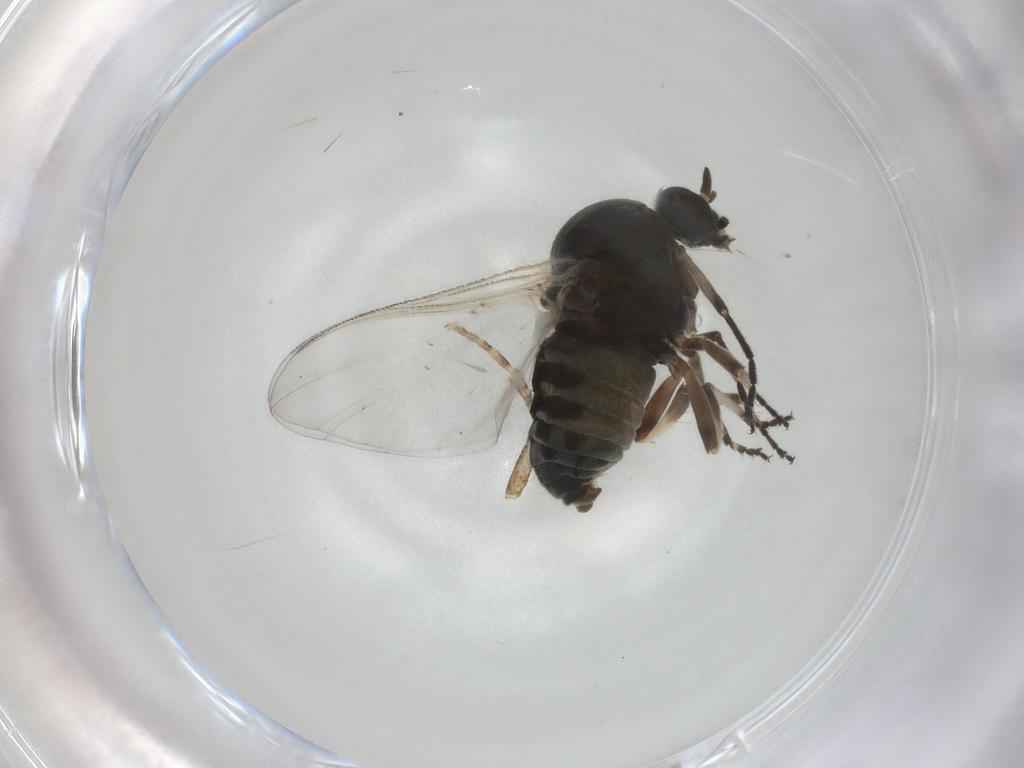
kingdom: Animalia
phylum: Arthropoda
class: Insecta
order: Diptera
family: Simuliidae
